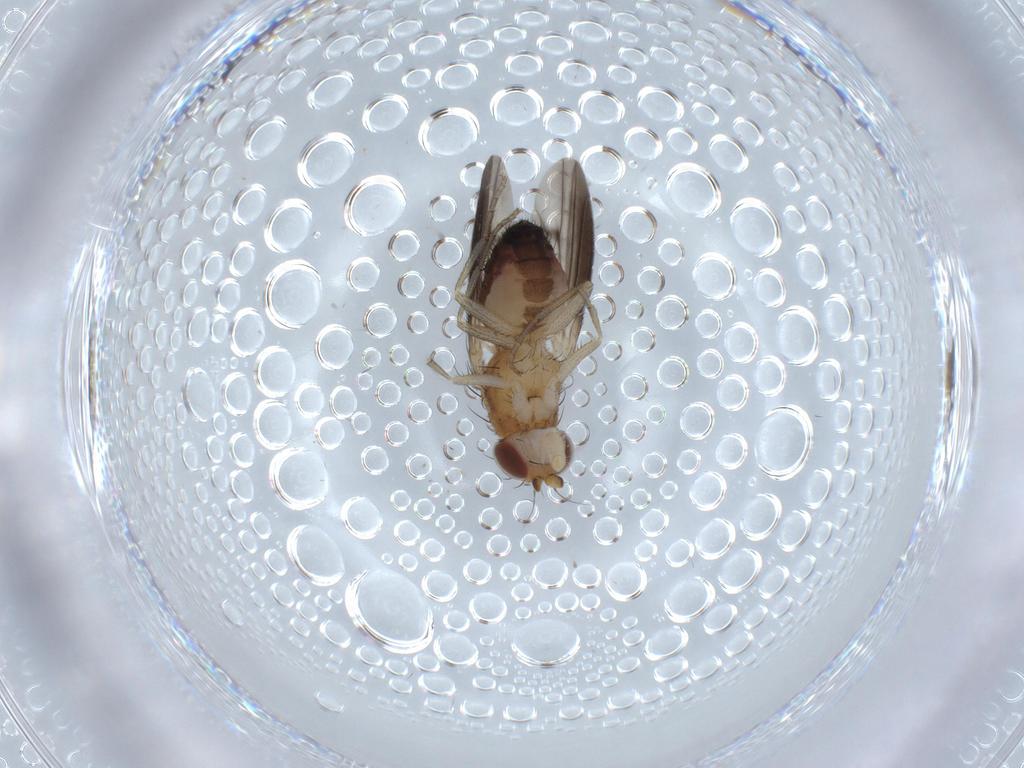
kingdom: Animalia
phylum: Arthropoda
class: Insecta
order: Diptera
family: Heleomyzidae
